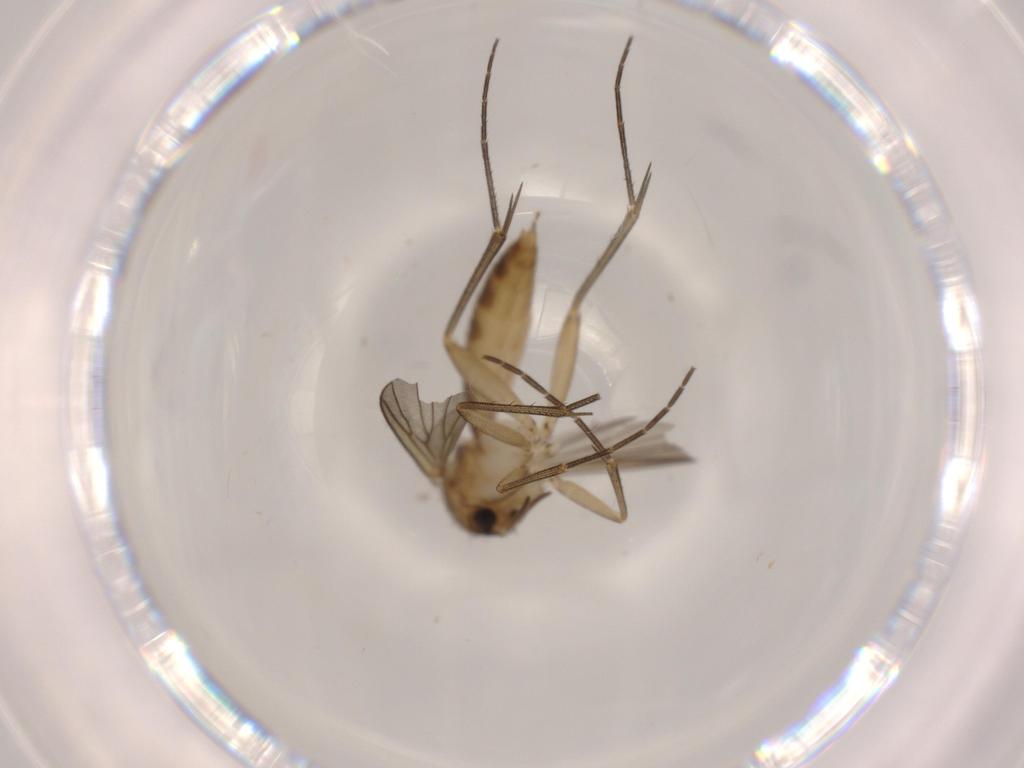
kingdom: Animalia
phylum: Arthropoda
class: Insecta
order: Diptera
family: Mycetophilidae
